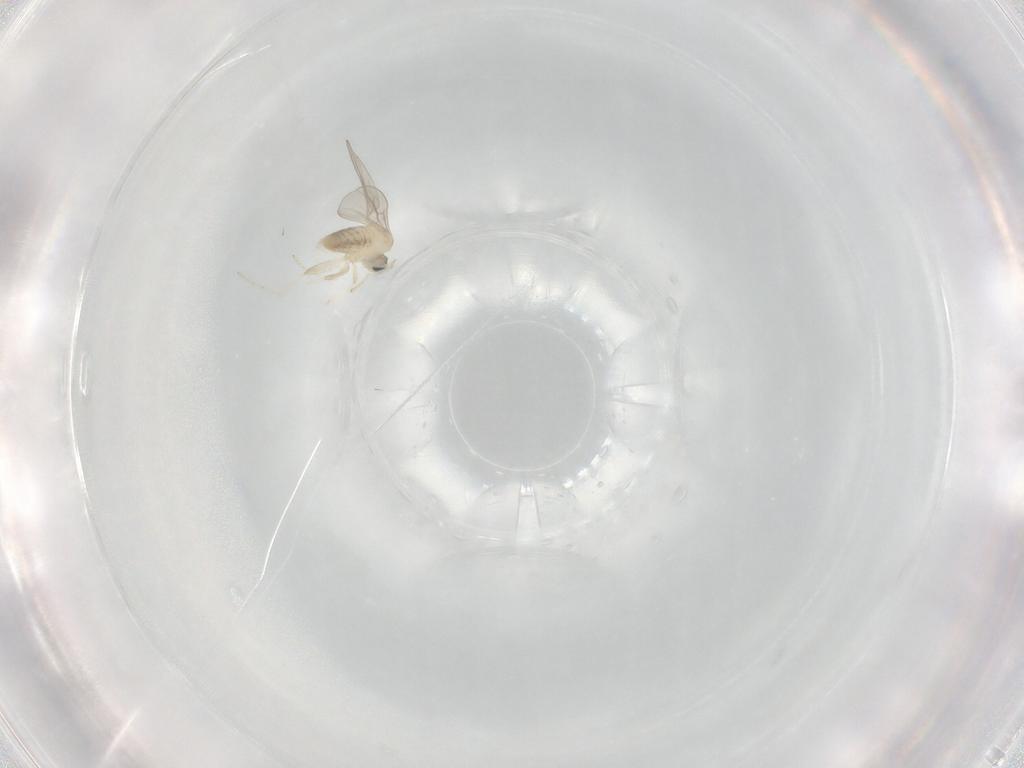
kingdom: Animalia
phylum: Arthropoda
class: Insecta
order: Diptera
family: Cecidomyiidae
